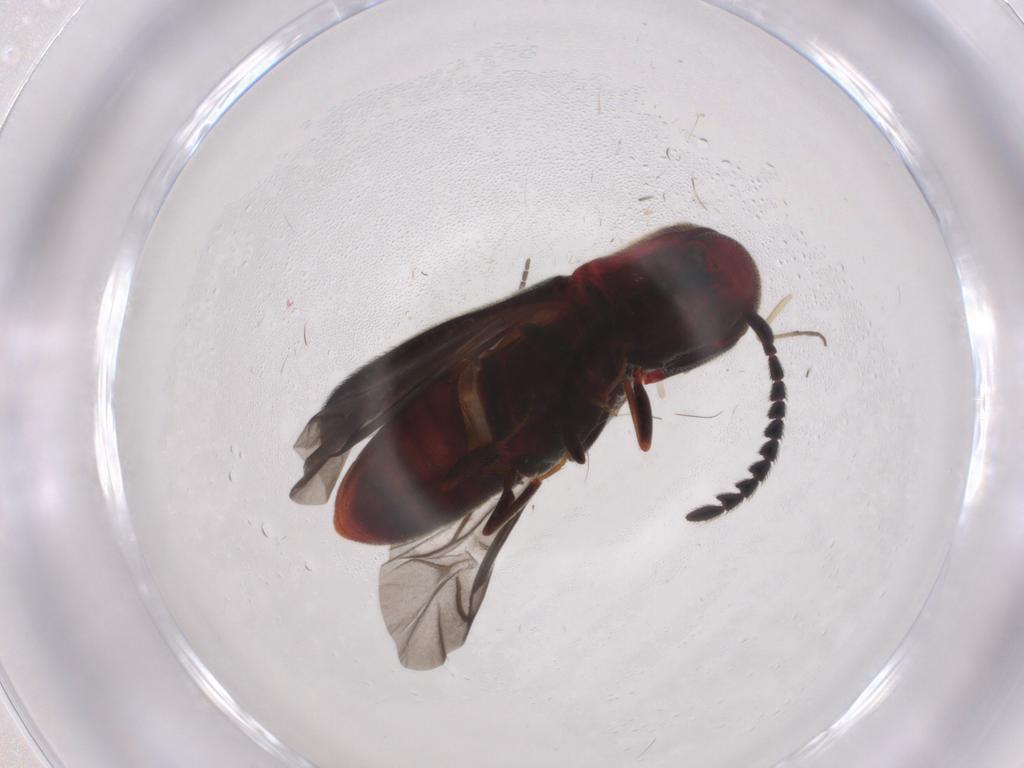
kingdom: Animalia
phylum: Arthropoda
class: Insecta
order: Coleoptera
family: Eucnemidae
